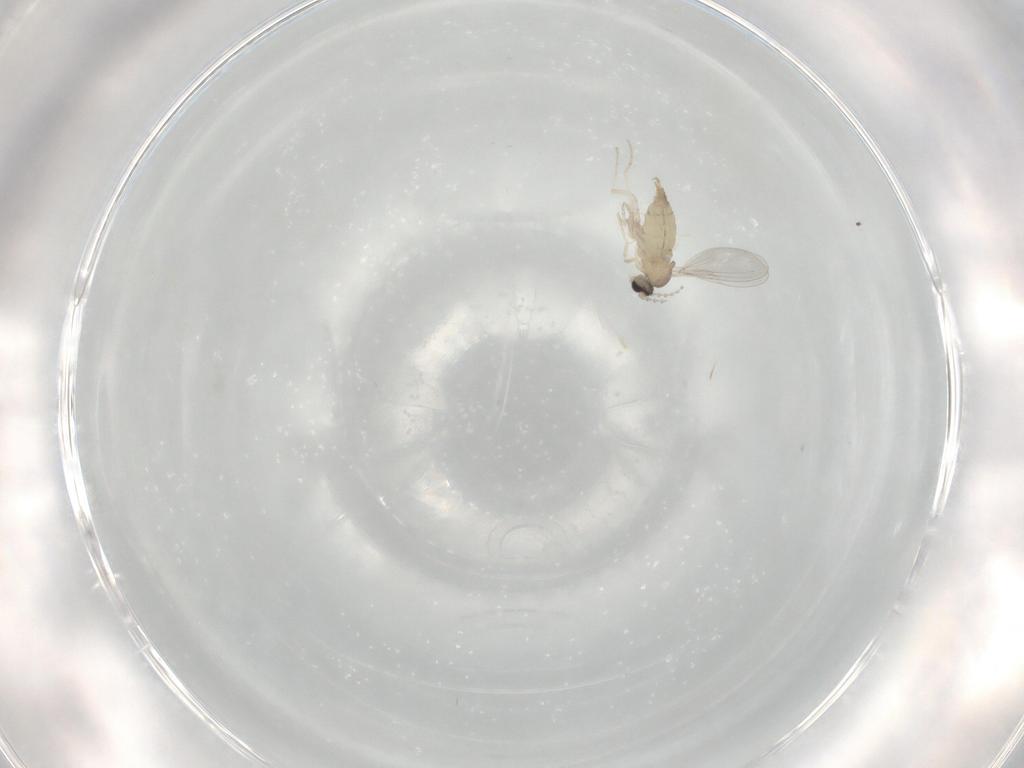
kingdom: Animalia
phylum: Arthropoda
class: Insecta
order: Diptera
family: Cecidomyiidae
